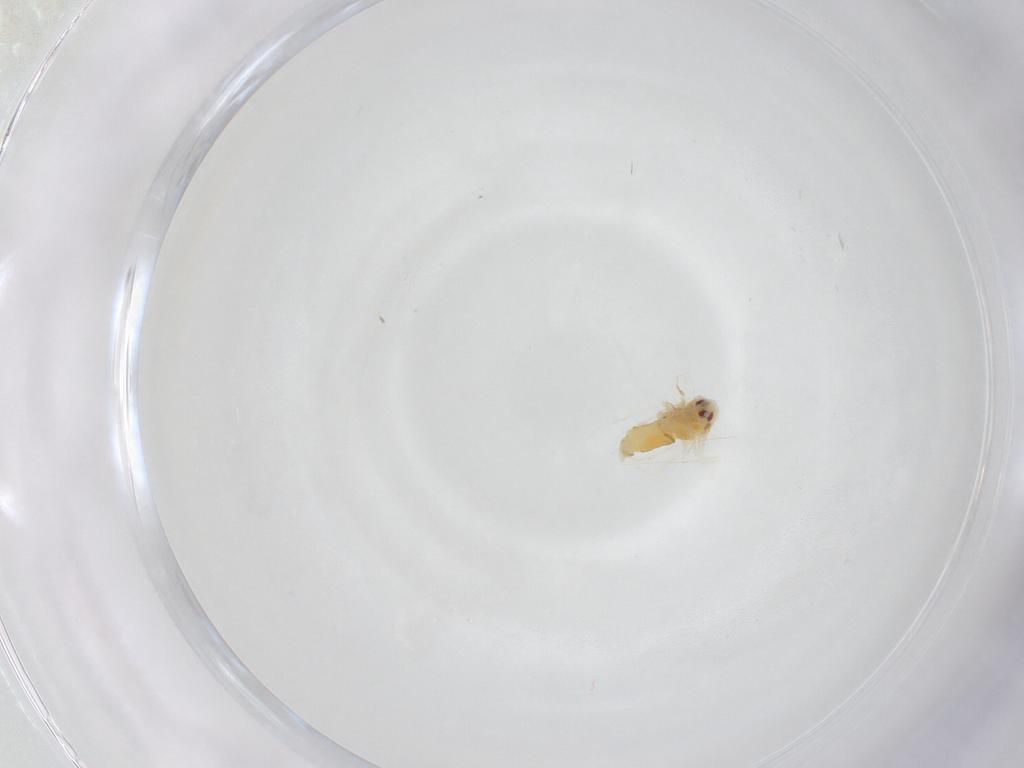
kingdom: Animalia
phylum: Arthropoda
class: Insecta
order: Hemiptera
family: Aleyrodidae
